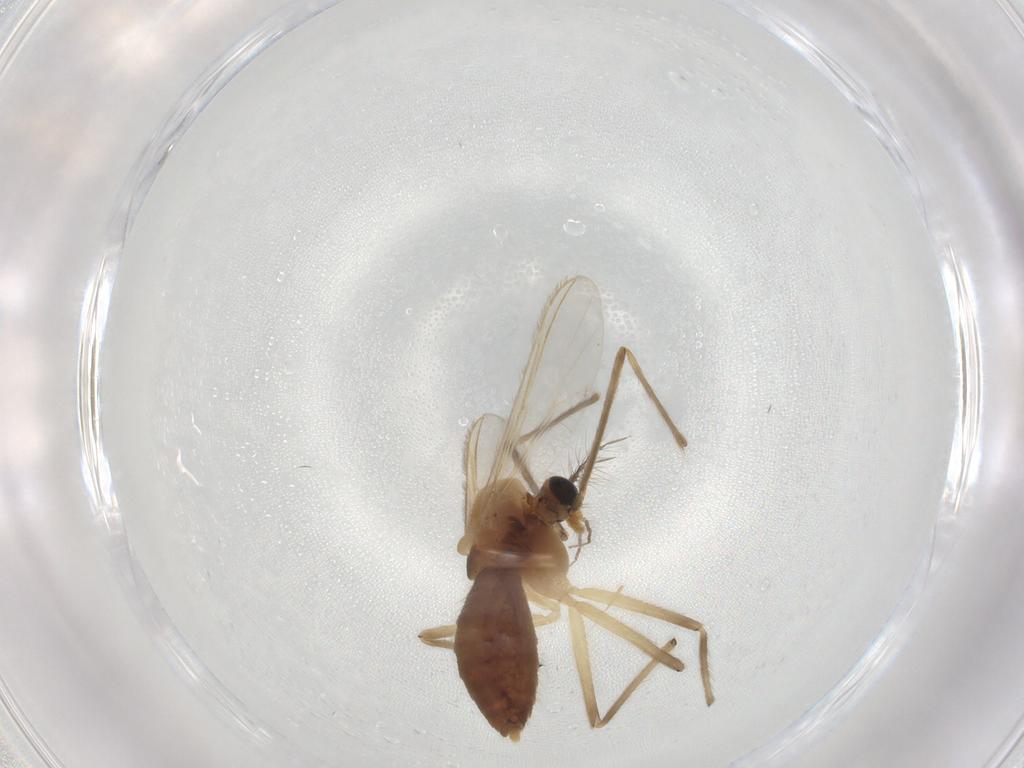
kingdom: Animalia
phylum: Arthropoda
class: Insecta
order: Diptera
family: Chironomidae
